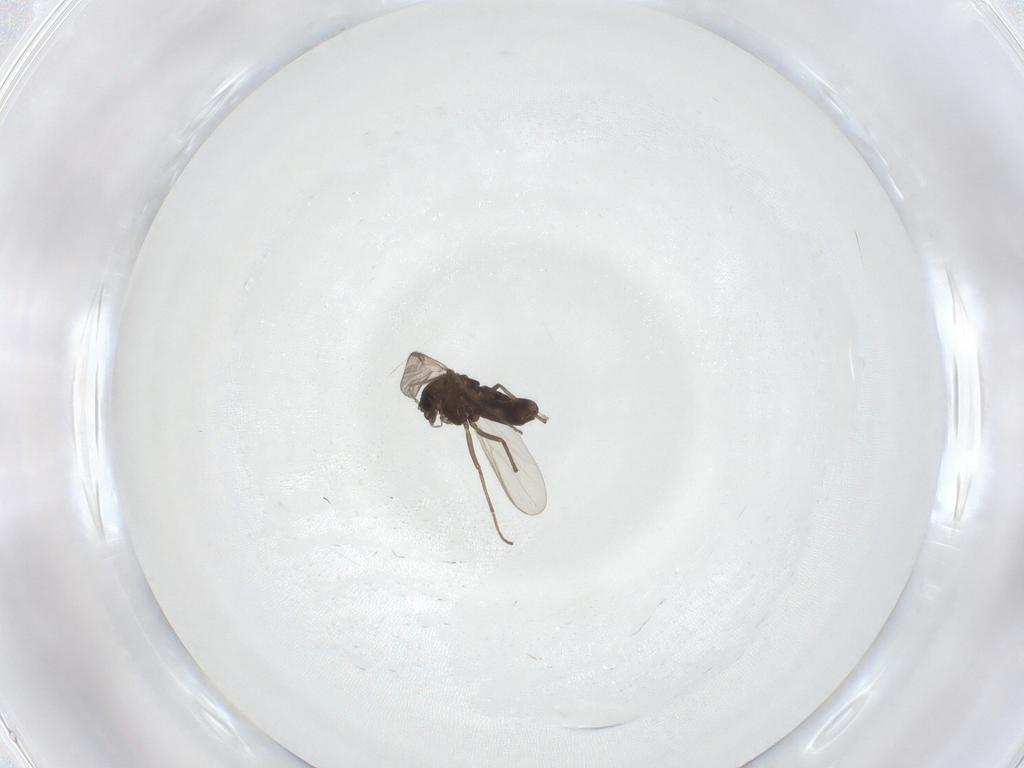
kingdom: Animalia
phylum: Arthropoda
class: Insecta
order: Diptera
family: Chironomidae
